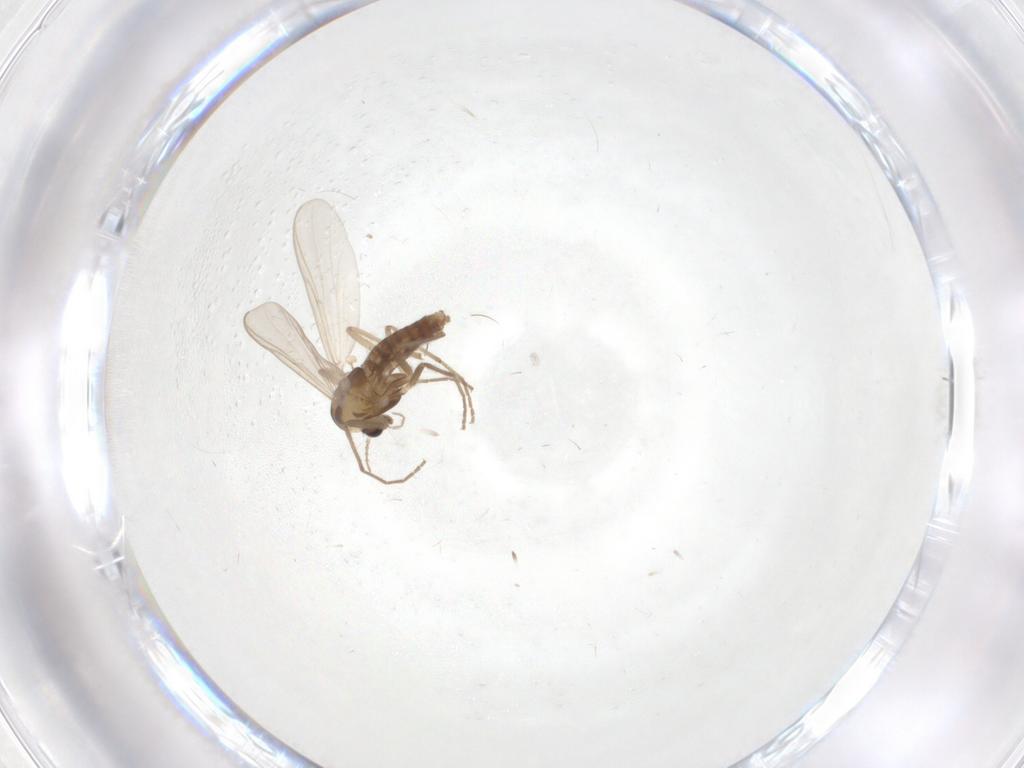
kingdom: Animalia
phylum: Arthropoda
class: Insecta
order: Diptera
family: Chironomidae
